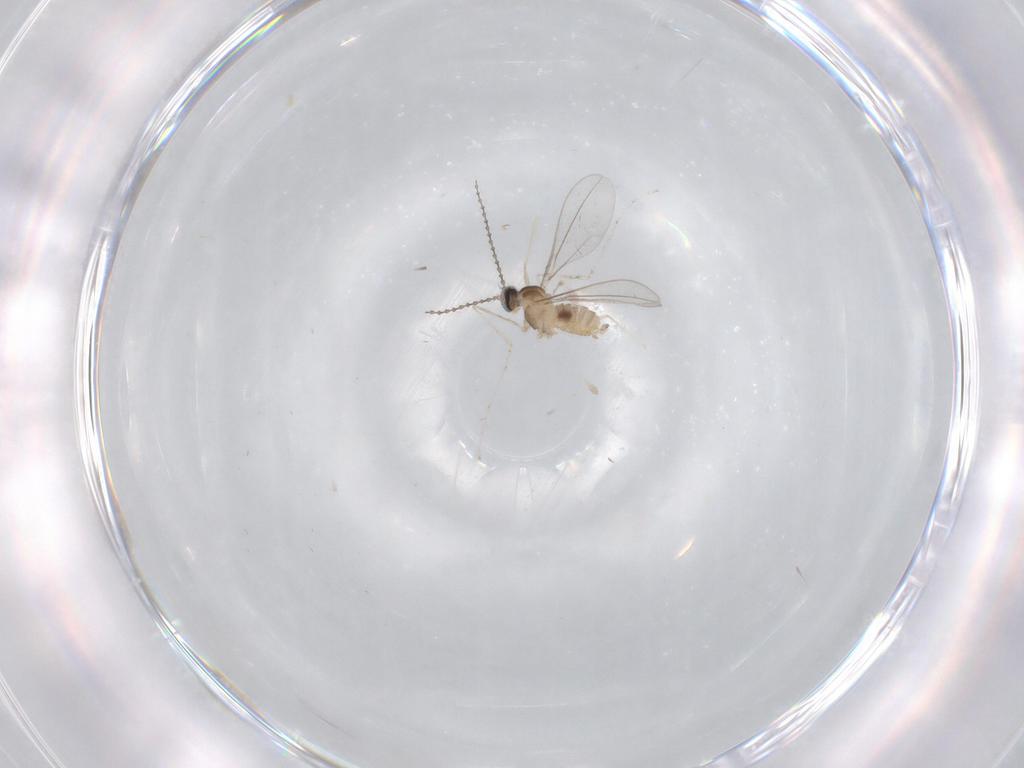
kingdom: Animalia
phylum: Arthropoda
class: Insecta
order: Diptera
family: Cecidomyiidae
